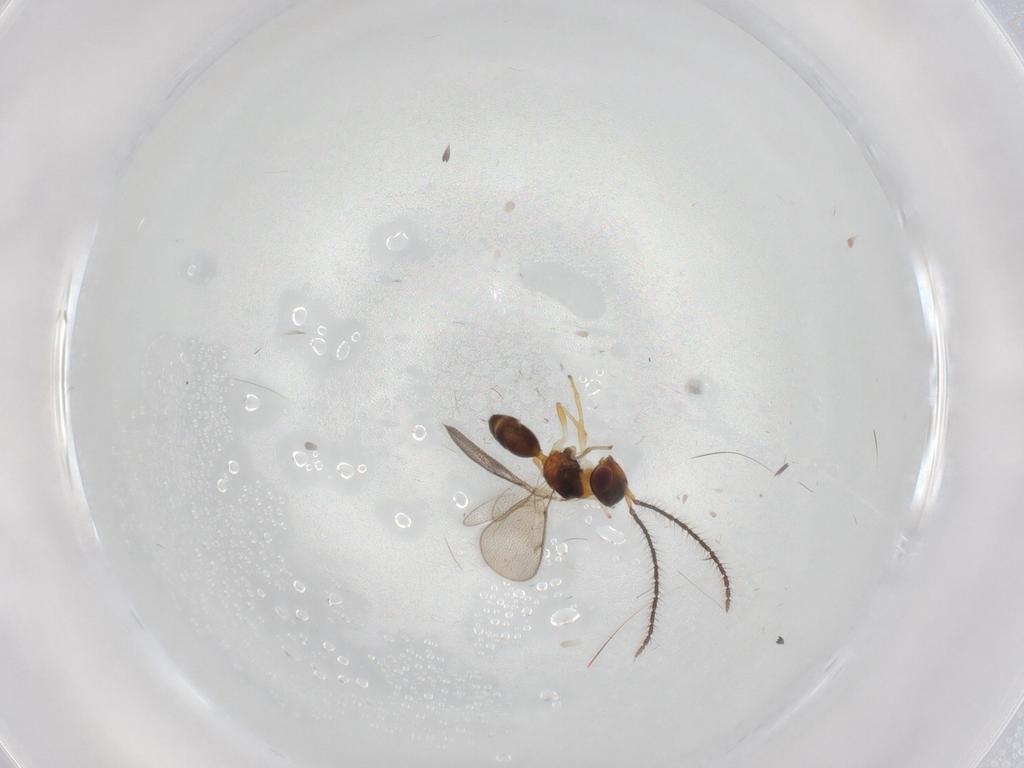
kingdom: Animalia
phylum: Arthropoda
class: Insecta
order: Hymenoptera
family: Diparidae
